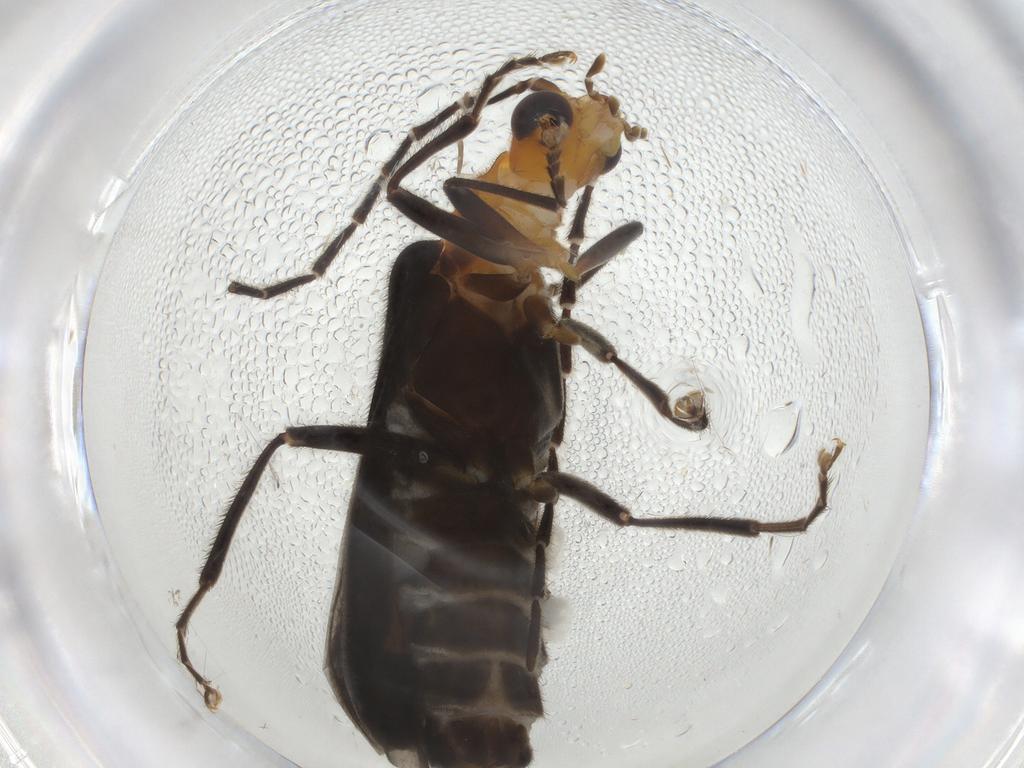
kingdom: Animalia
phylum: Arthropoda
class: Insecta
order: Coleoptera
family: Cantharidae
